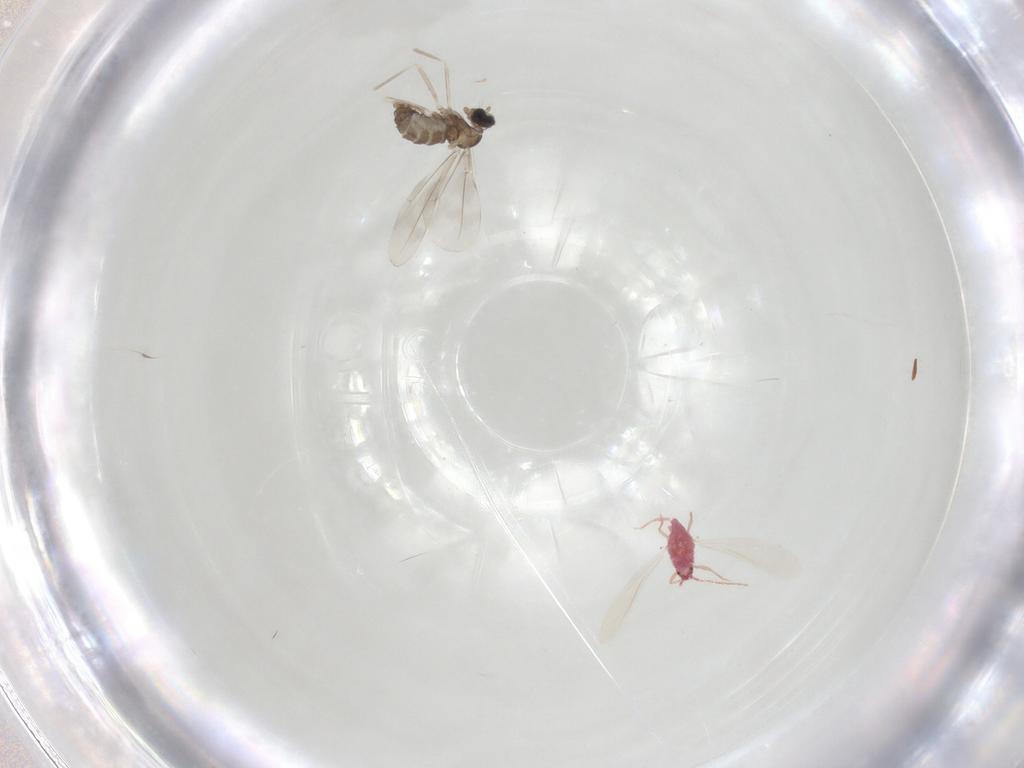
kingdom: Animalia
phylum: Arthropoda
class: Insecta
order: Diptera
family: Cecidomyiidae
